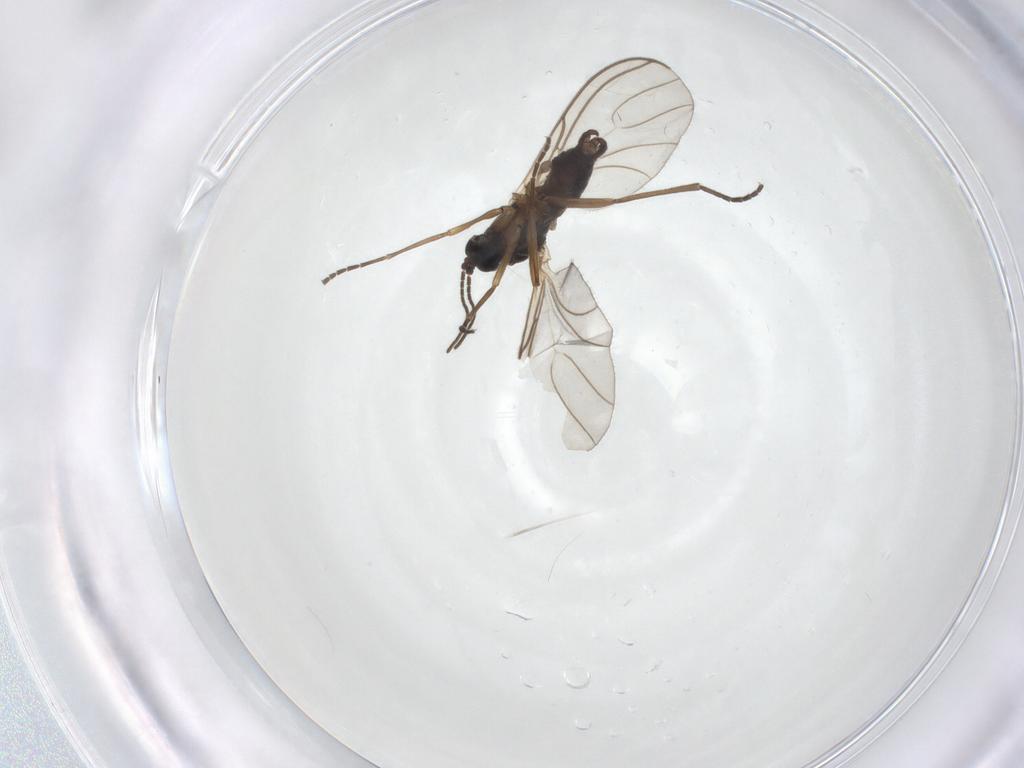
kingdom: Animalia
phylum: Arthropoda
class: Insecta
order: Diptera
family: Sciaridae
